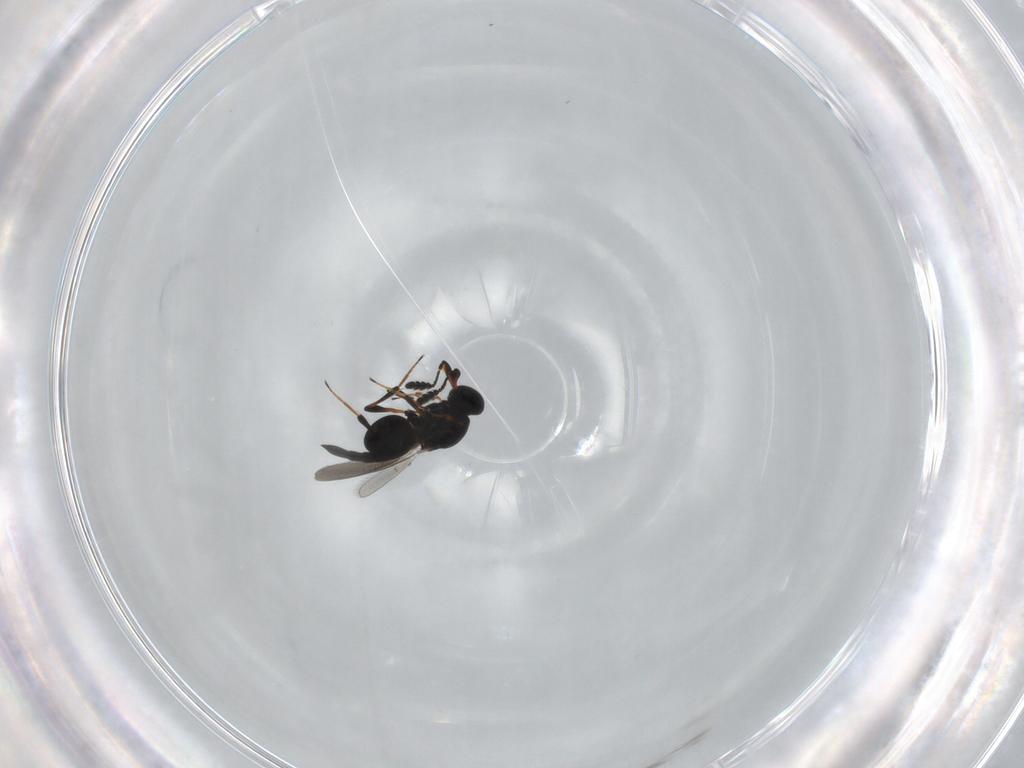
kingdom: Animalia
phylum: Arthropoda
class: Insecta
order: Hymenoptera
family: Platygastridae
